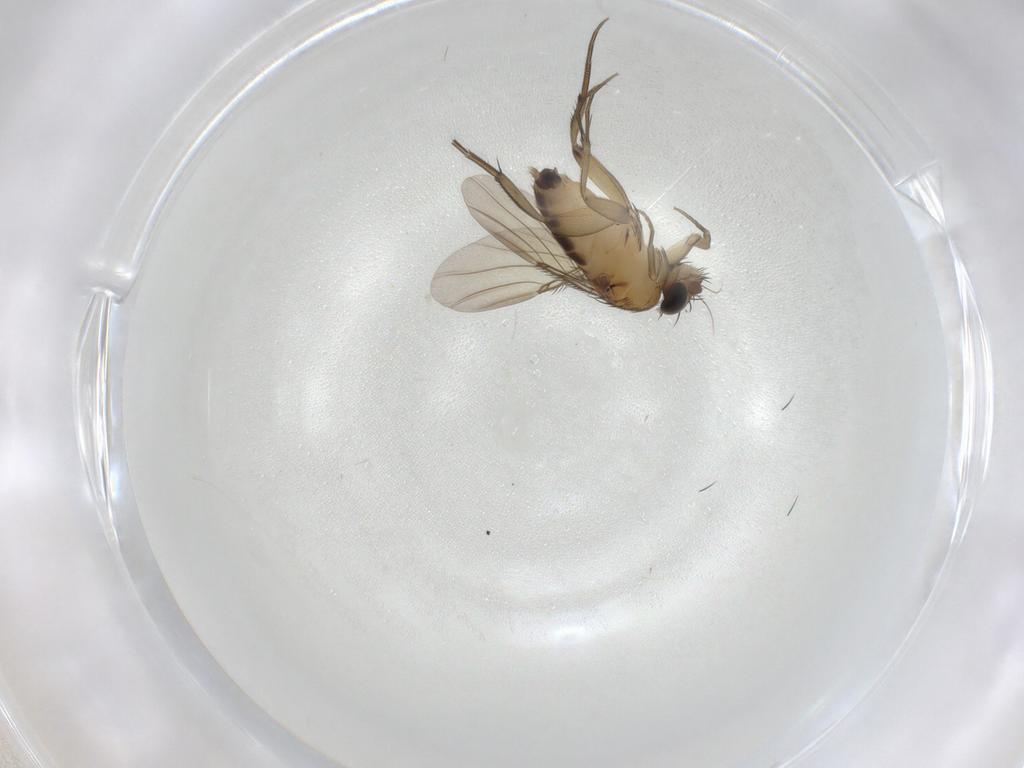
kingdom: Animalia
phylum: Arthropoda
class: Insecta
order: Diptera
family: Phoridae
